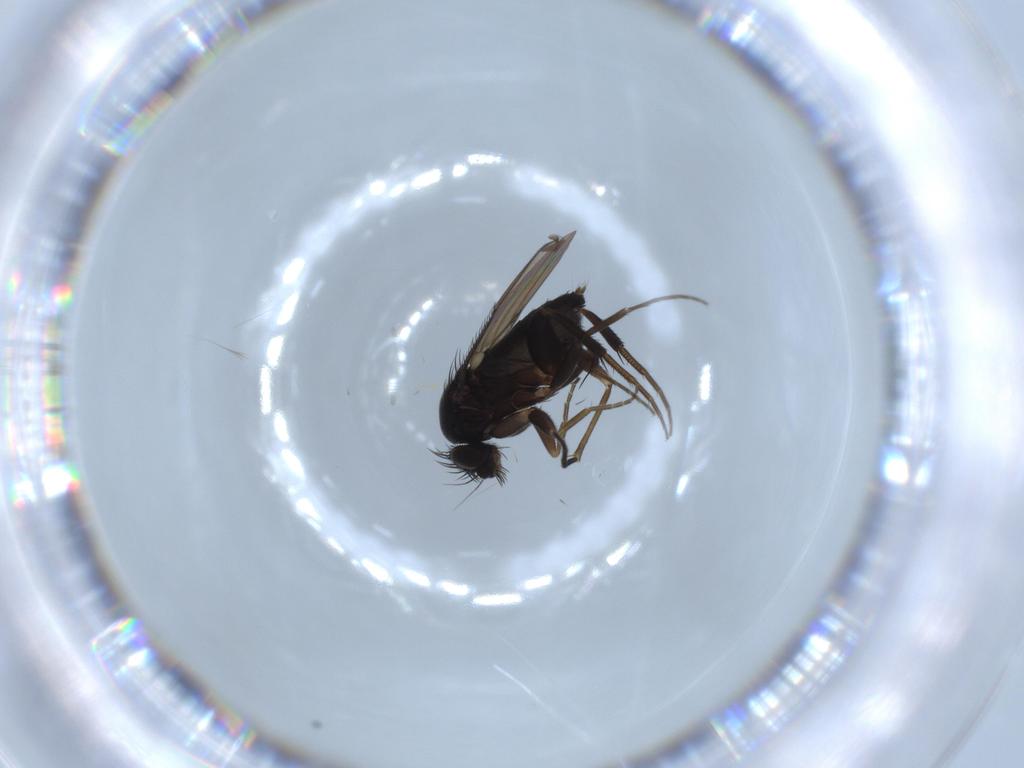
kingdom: Animalia
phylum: Arthropoda
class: Insecta
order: Diptera
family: Phoridae
